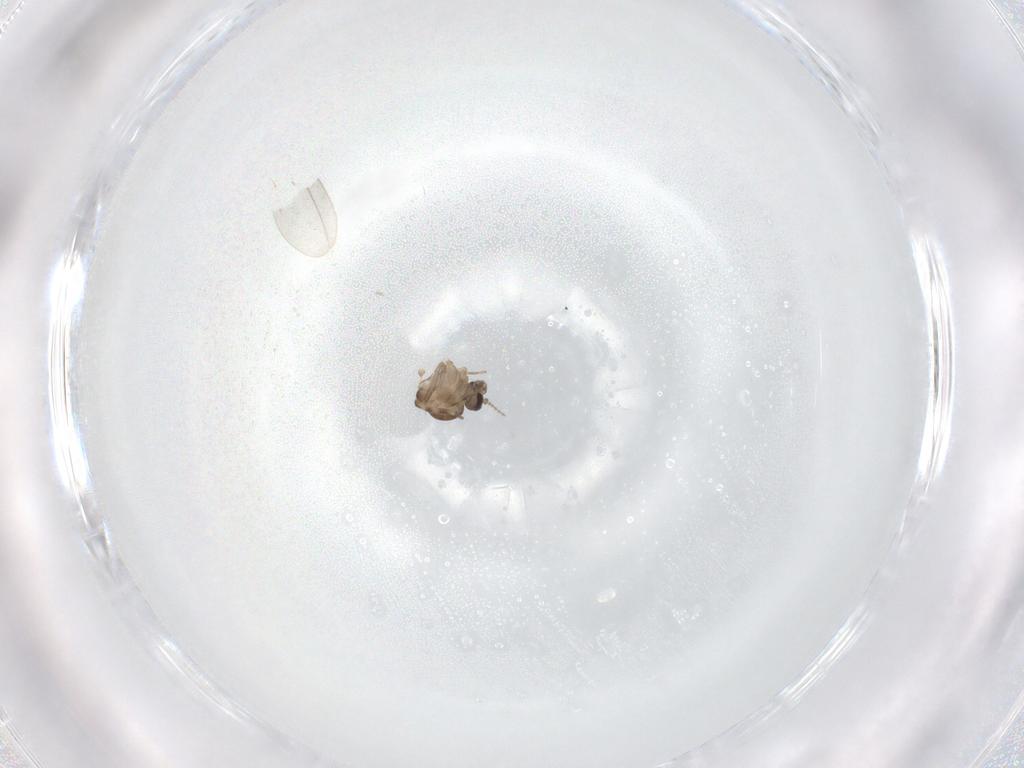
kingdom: Animalia
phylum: Arthropoda
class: Insecta
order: Diptera
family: Ceratopogonidae
